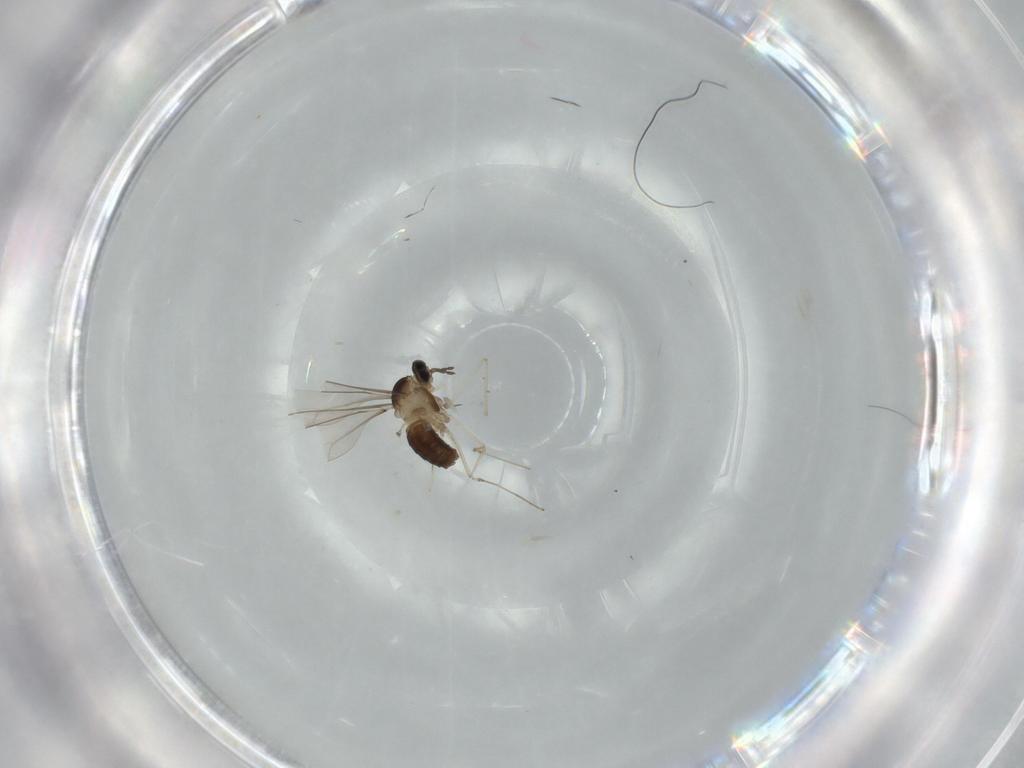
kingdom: Animalia
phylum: Arthropoda
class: Insecta
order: Diptera
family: Cecidomyiidae
